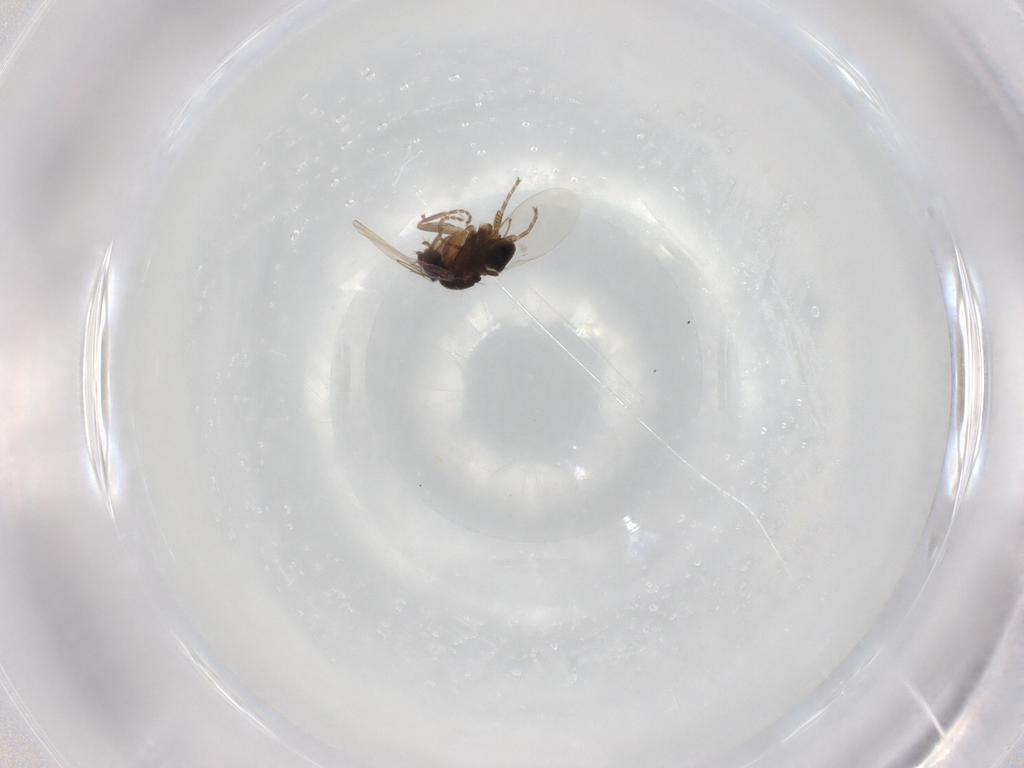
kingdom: Animalia
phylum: Arthropoda
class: Insecta
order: Diptera
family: Phoridae
